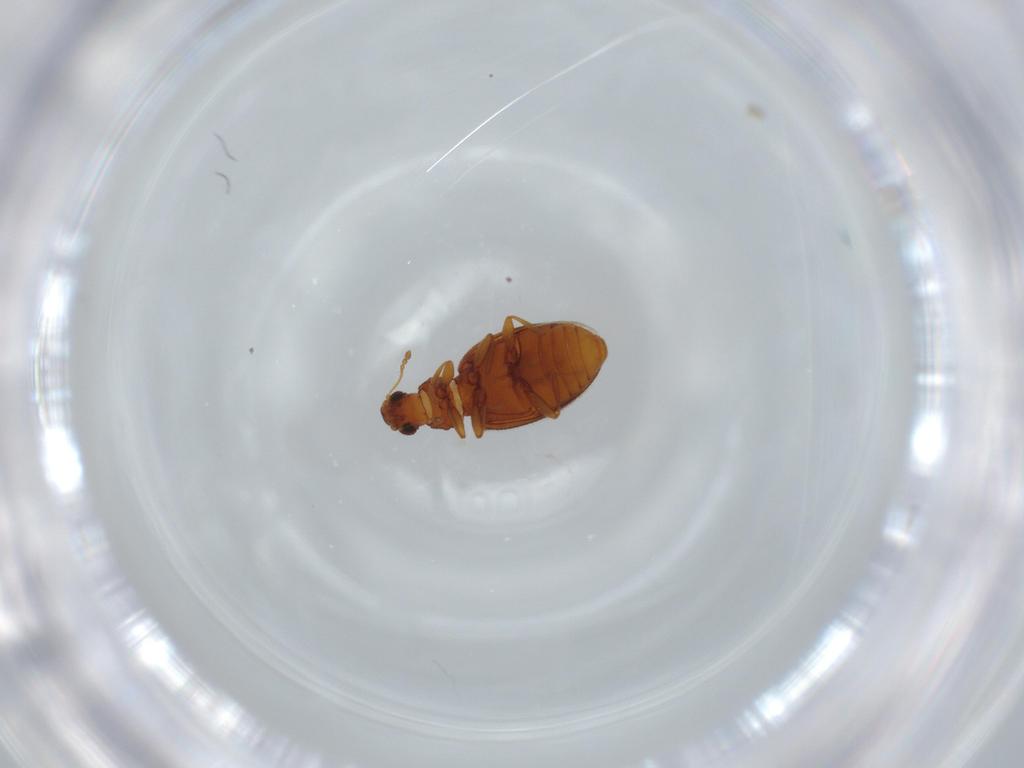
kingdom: Animalia
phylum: Arthropoda
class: Insecta
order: Coleoptera
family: Latridiidae
